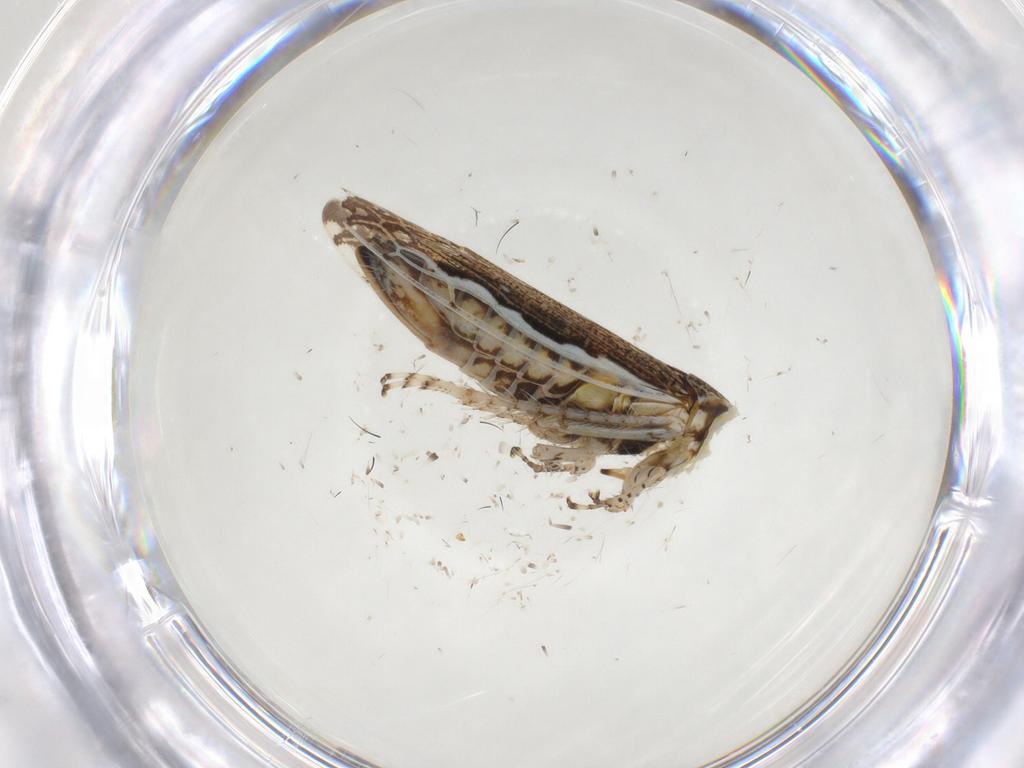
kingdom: Animalia
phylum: Arthropoda
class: Insecta
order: Hemiptera
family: Cicadellidae
